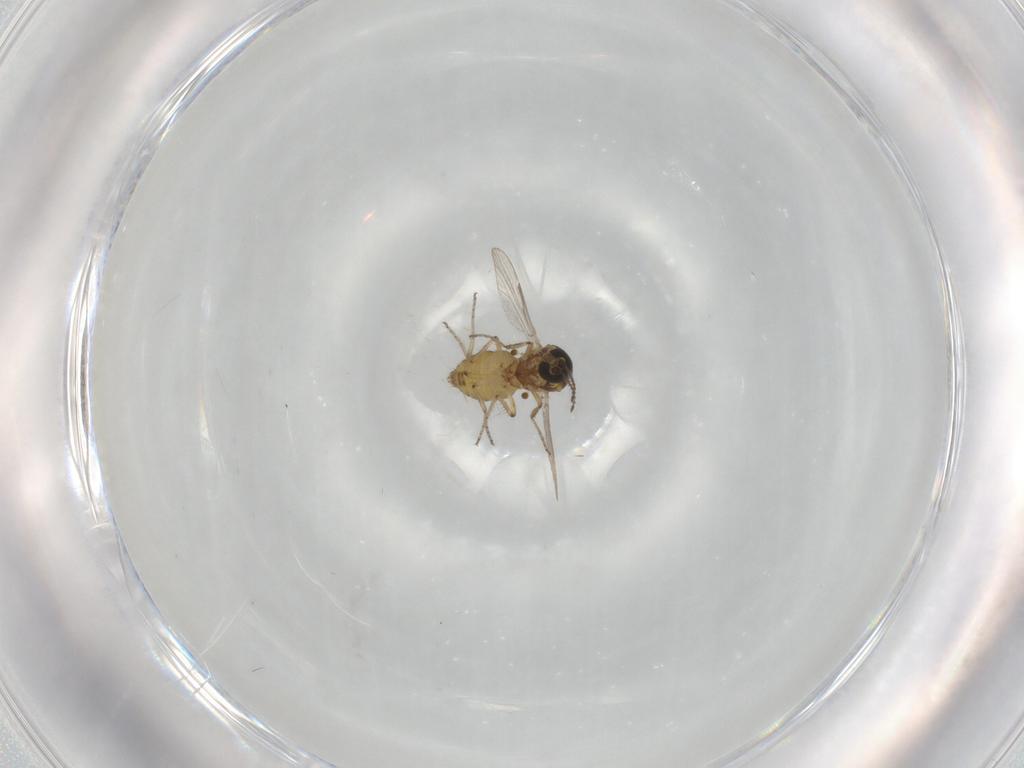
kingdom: Animalia
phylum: Arthropoda
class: Insecta
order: Diptera
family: Ceratopogonidae
